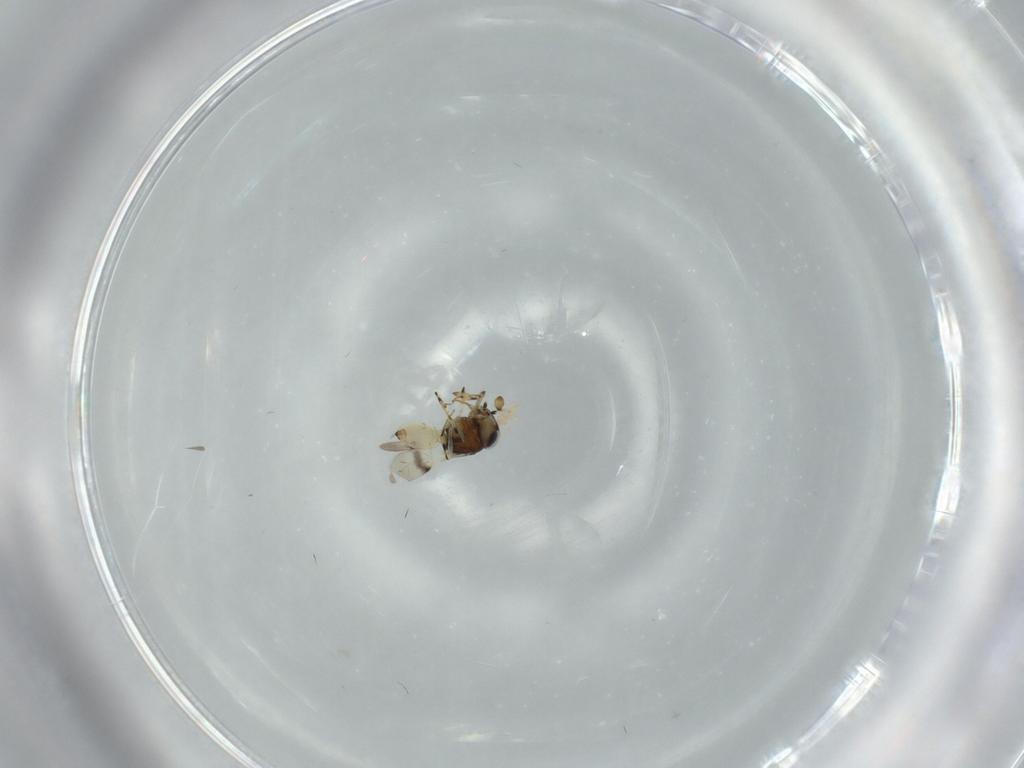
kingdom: Animalia
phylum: Arthropoda
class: Insecta
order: Hymenoptera
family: Scelionidae
